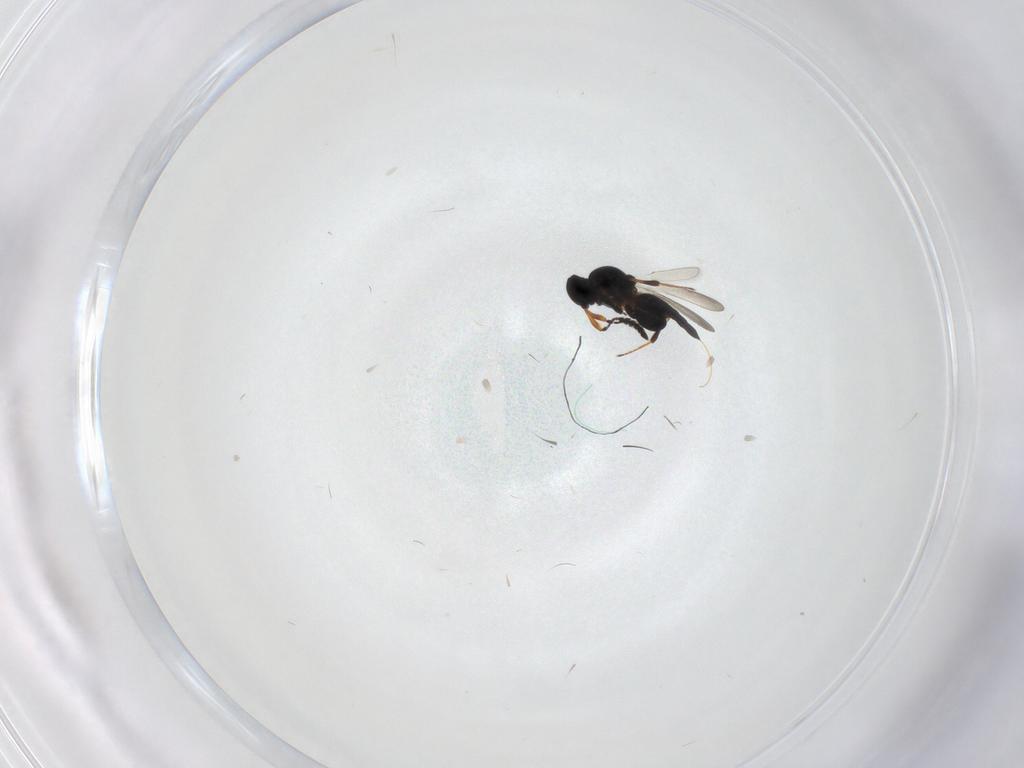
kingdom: Animalia
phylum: Arthropoda
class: Insecta
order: Hymenoptera
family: Platygastridae
